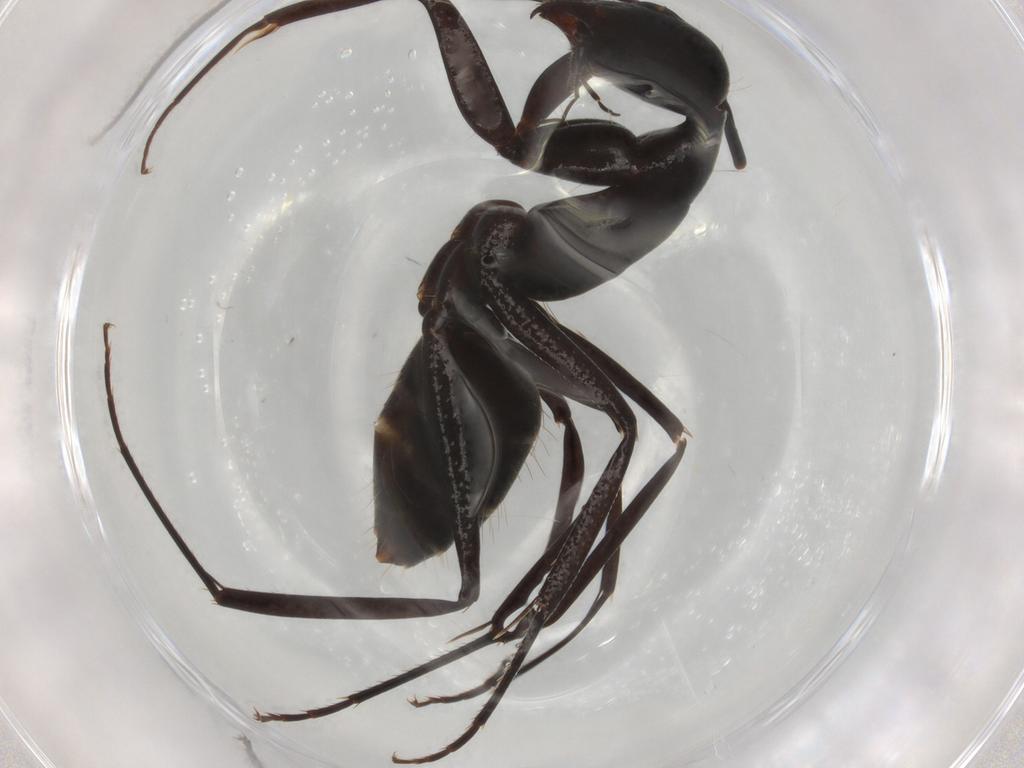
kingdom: Animalia
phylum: Arthropoda
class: Insecta
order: Hymenoptera
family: Formicidae
